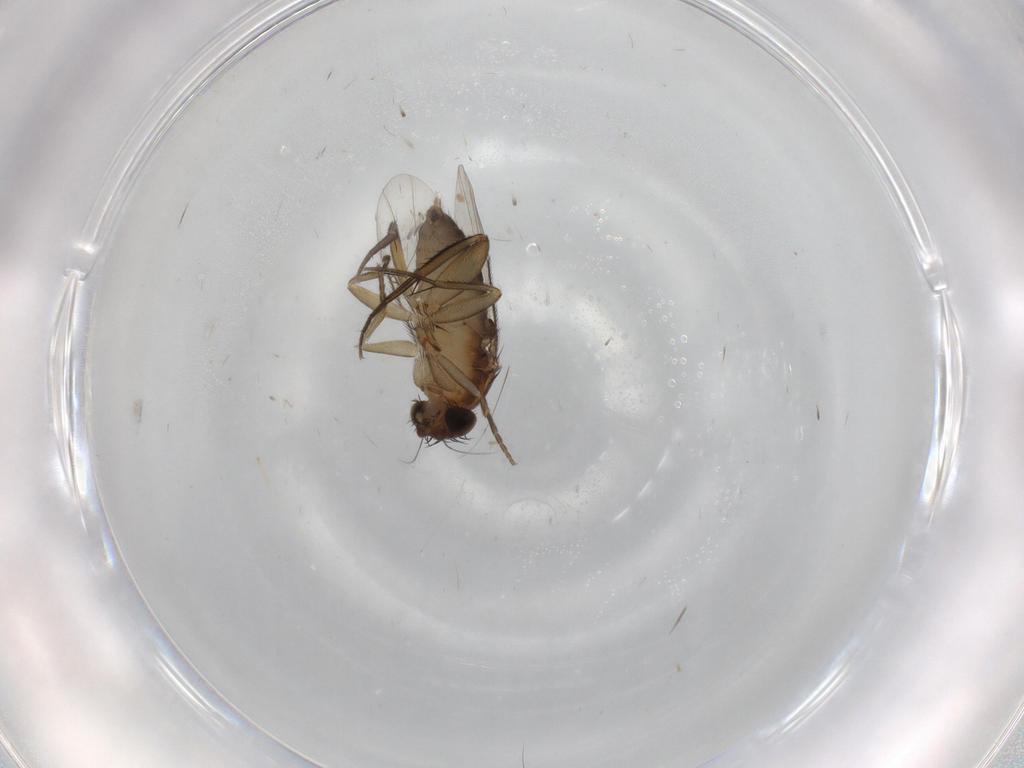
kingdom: Animalia
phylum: Arthropoda
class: Insecta
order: Diptera
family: Phoridae
